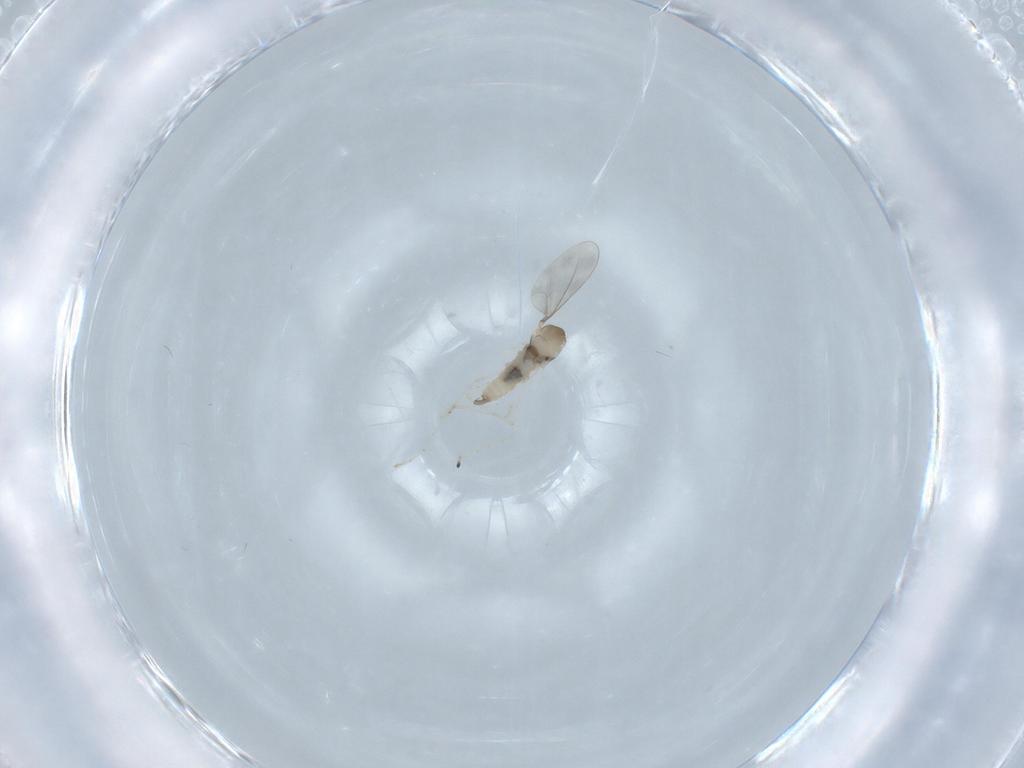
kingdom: Animalia
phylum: Arthropoda
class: Insecta
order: Diptera
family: Cecidomyiidae
